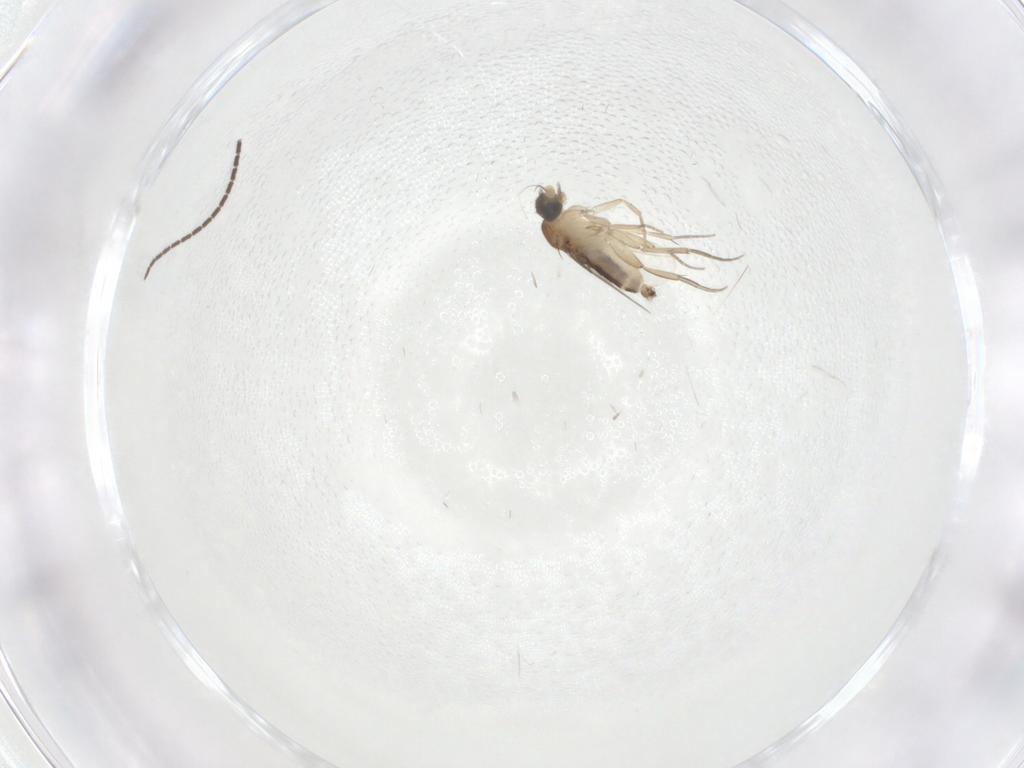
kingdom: Animalia
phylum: Arthropoda
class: Insecta
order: Diptera
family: Sciaridae
